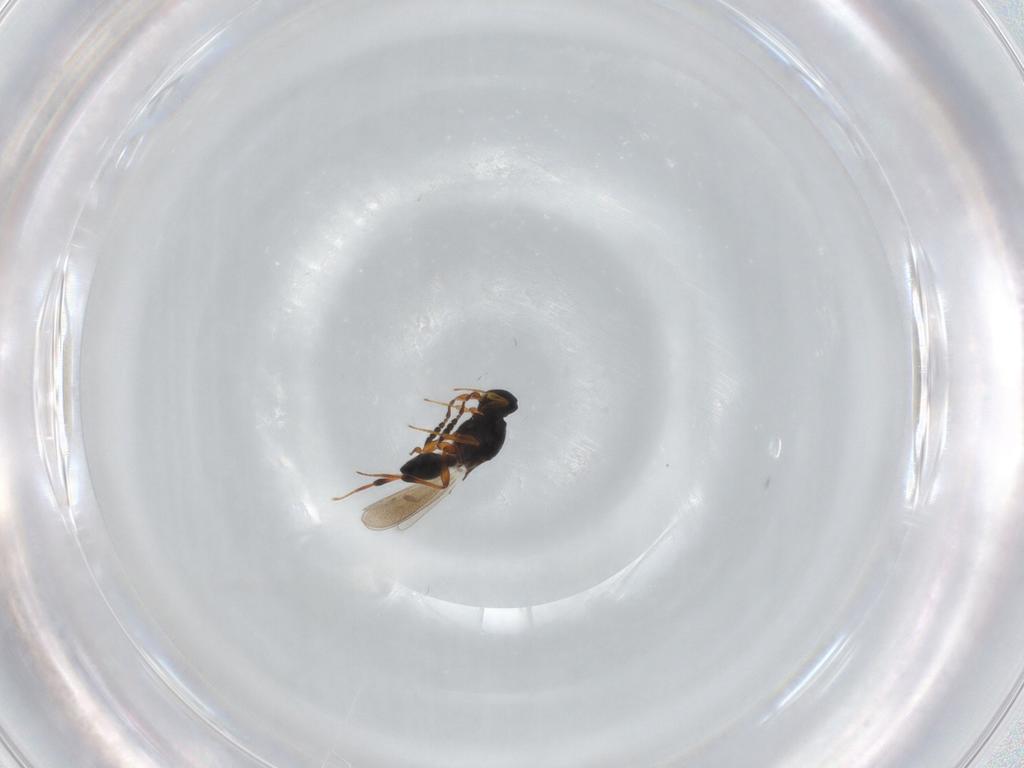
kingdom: Animalia
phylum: Arthropoda
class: Insecta
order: Hymenoptera
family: Platygastridae
